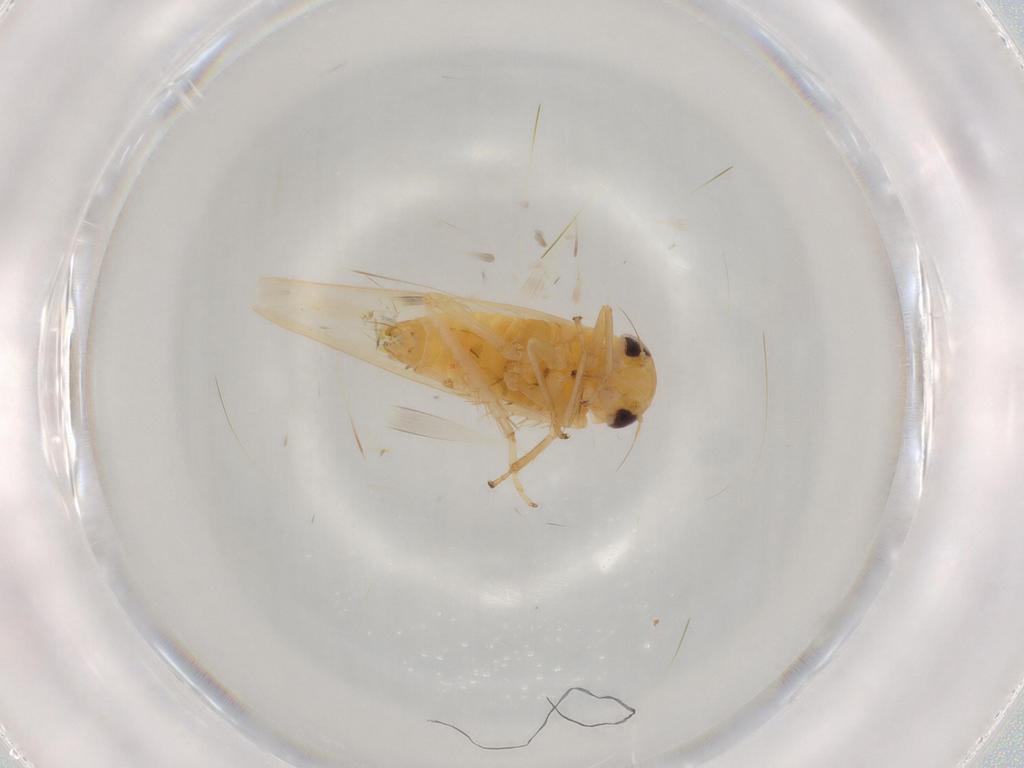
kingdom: Animalia
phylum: Arthropoda
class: Insecta
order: Hemiptera
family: Cicadellidae
